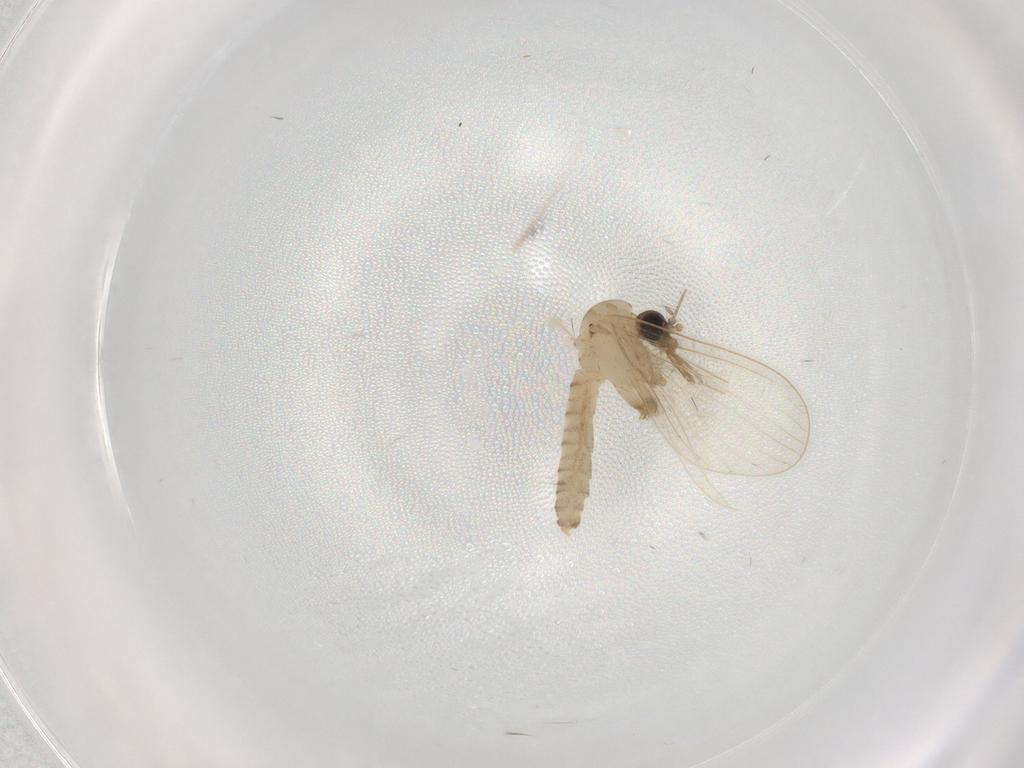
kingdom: Animalia
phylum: Arthropoda
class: Insecta
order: Diptera
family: Psychodidae
